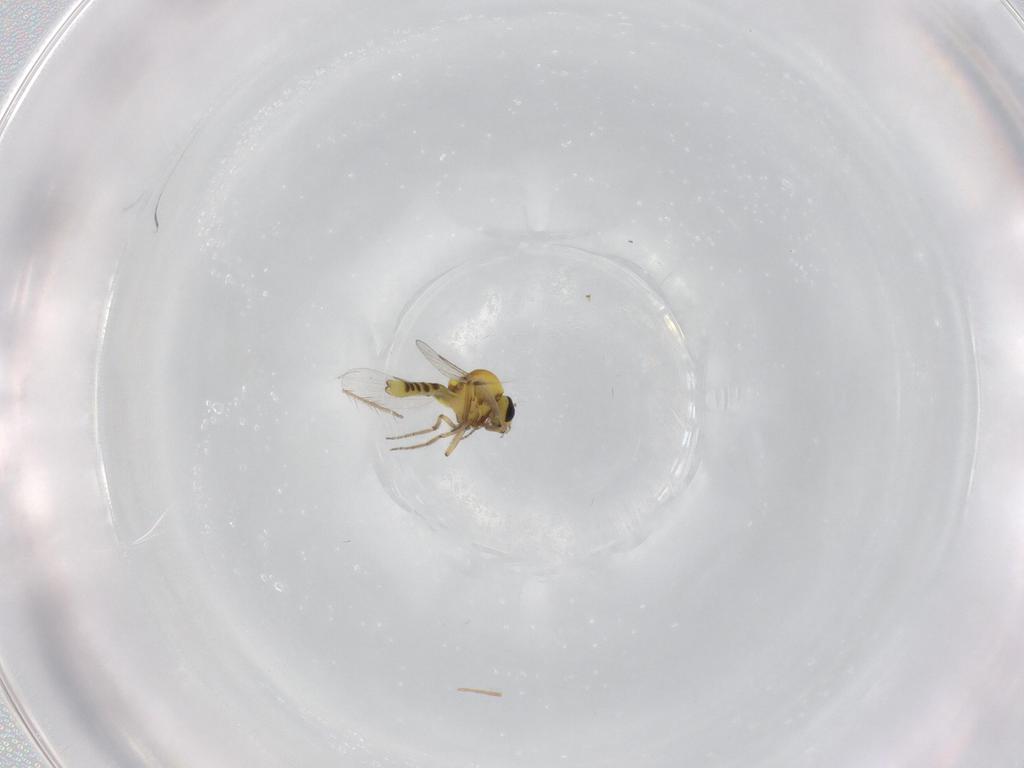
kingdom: Animalia
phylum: Arthropoda
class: Insecta
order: Diptera
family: Ceratopogonidae
